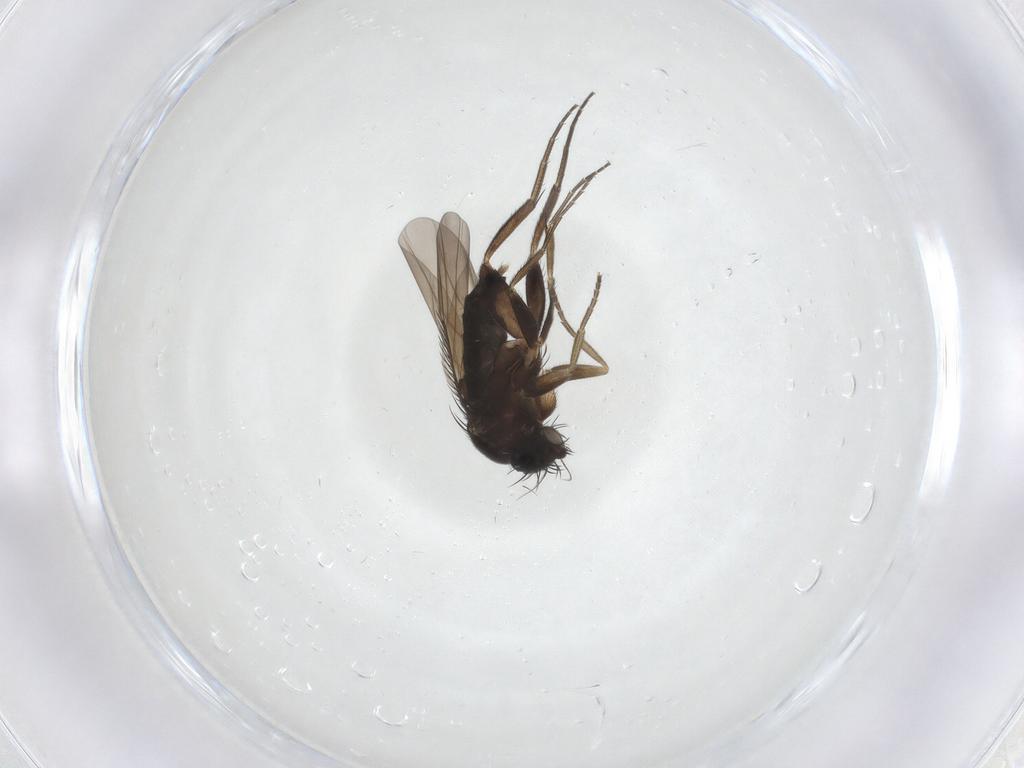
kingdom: Animalia
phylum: Arthropoda
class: Insecta
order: Diptera
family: Phoridae
